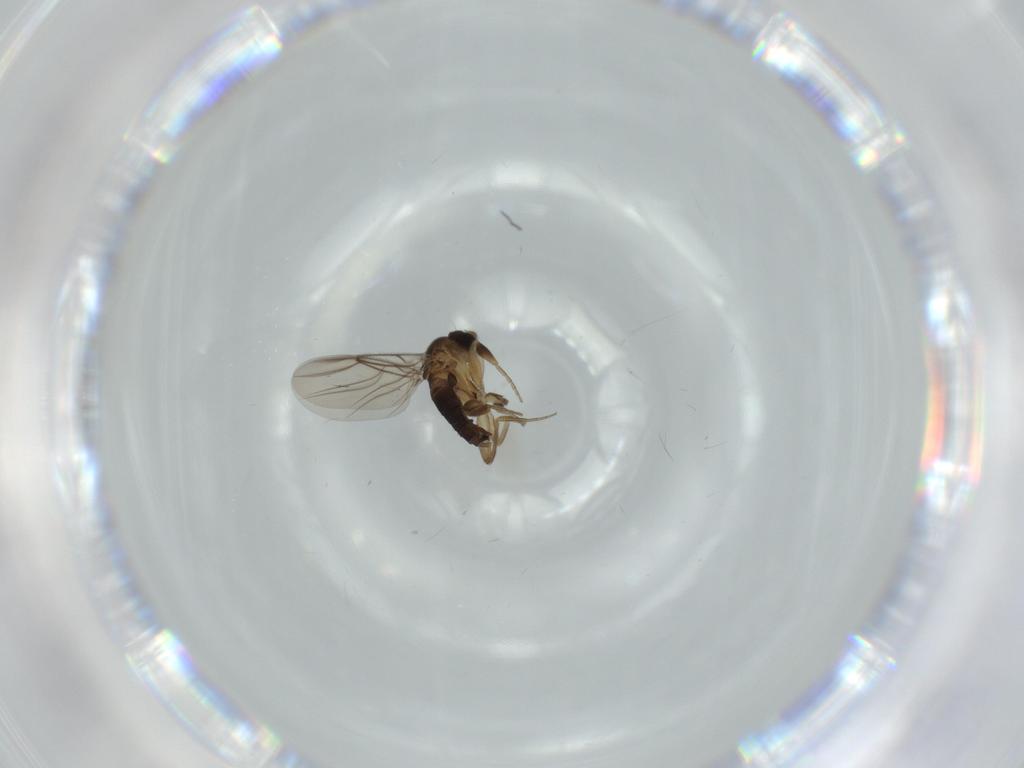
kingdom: Animalia
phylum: Arthropoda
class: Insecta
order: Diptera
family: Phoridae
